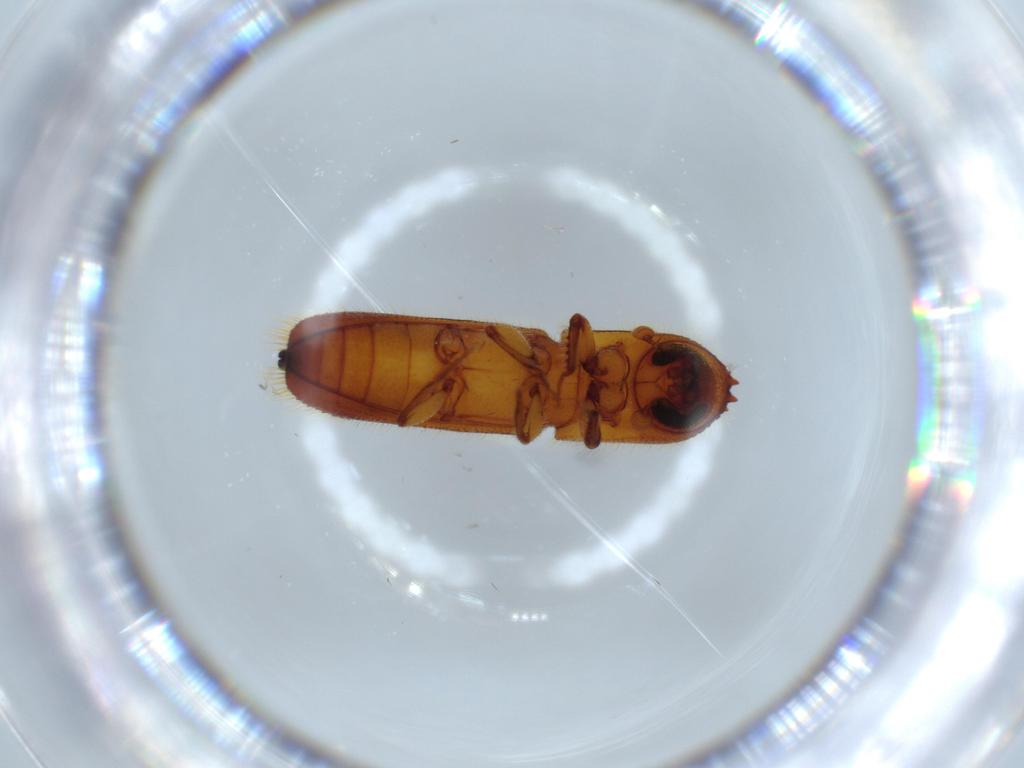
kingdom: Animalia
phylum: Arthropoda
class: Insecta
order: Coleoptera
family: Curculionidae
